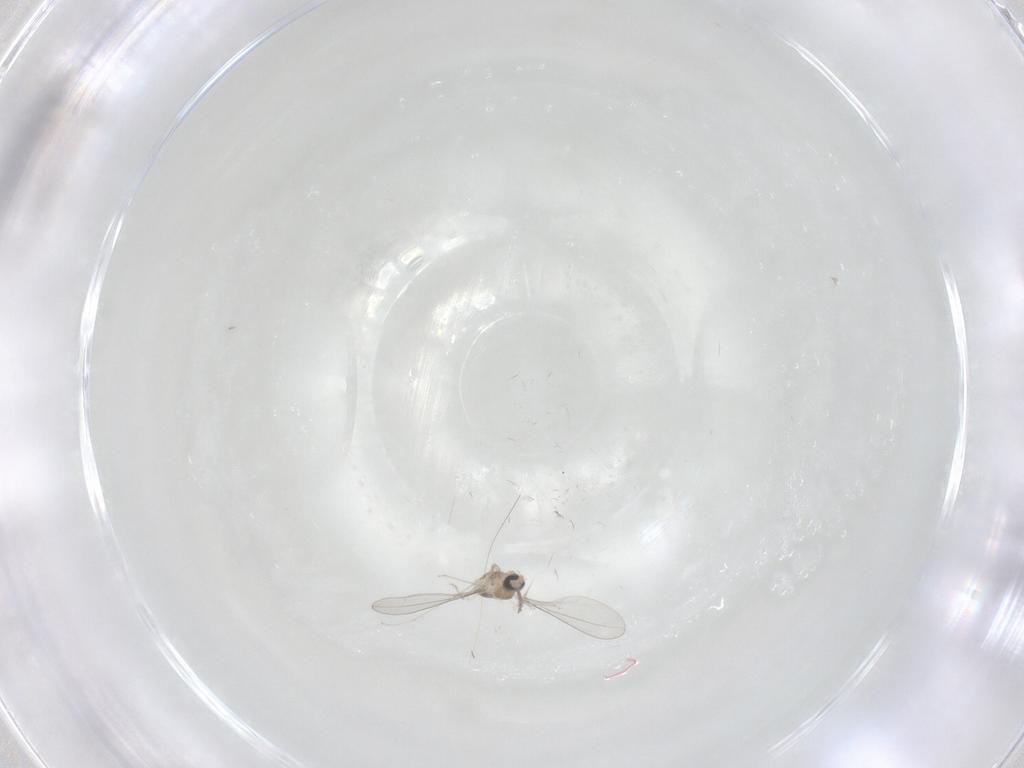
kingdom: Animalia
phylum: Arthropoda
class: Insecta
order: Diptera
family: Cecidomyiidae
